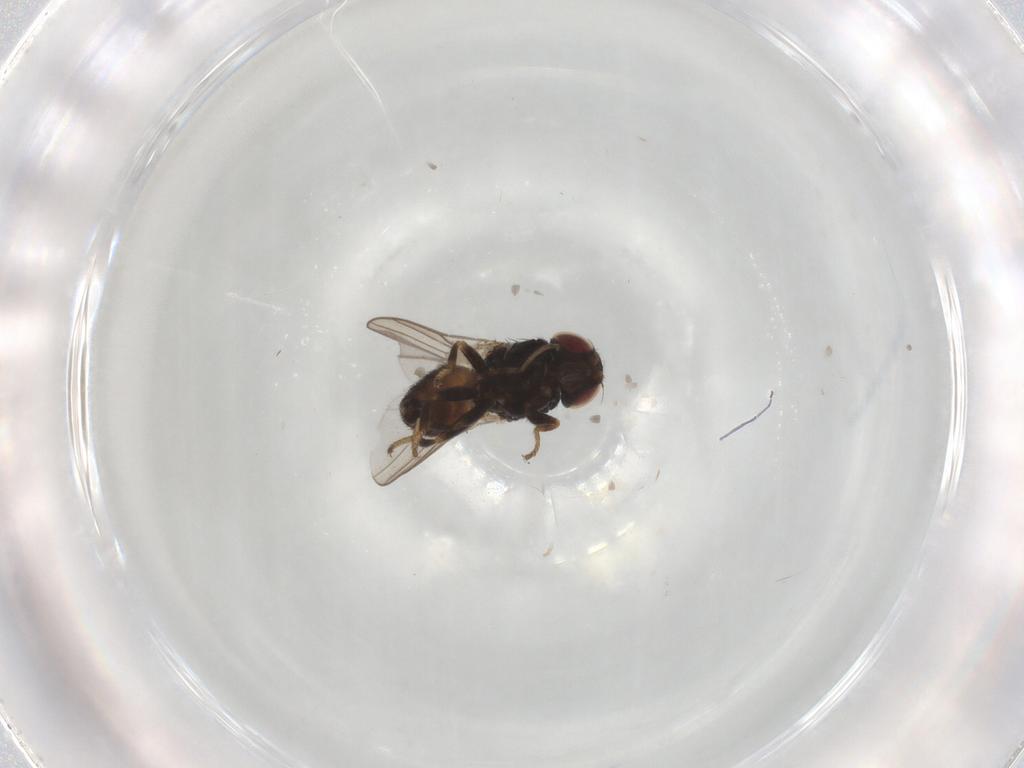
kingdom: Animalia
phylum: Arthropoda
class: Insecta
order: Diptera
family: Chloropidae
